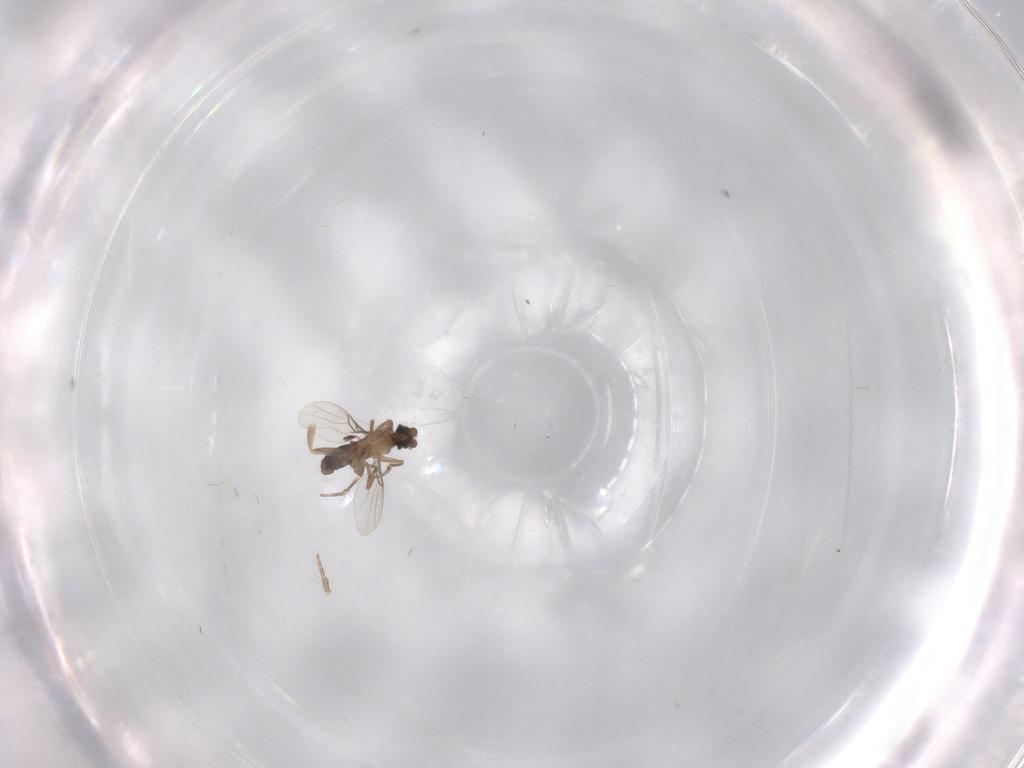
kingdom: Animalia
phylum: Arthropoda
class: Insecta
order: Diptera
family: Phoridae
